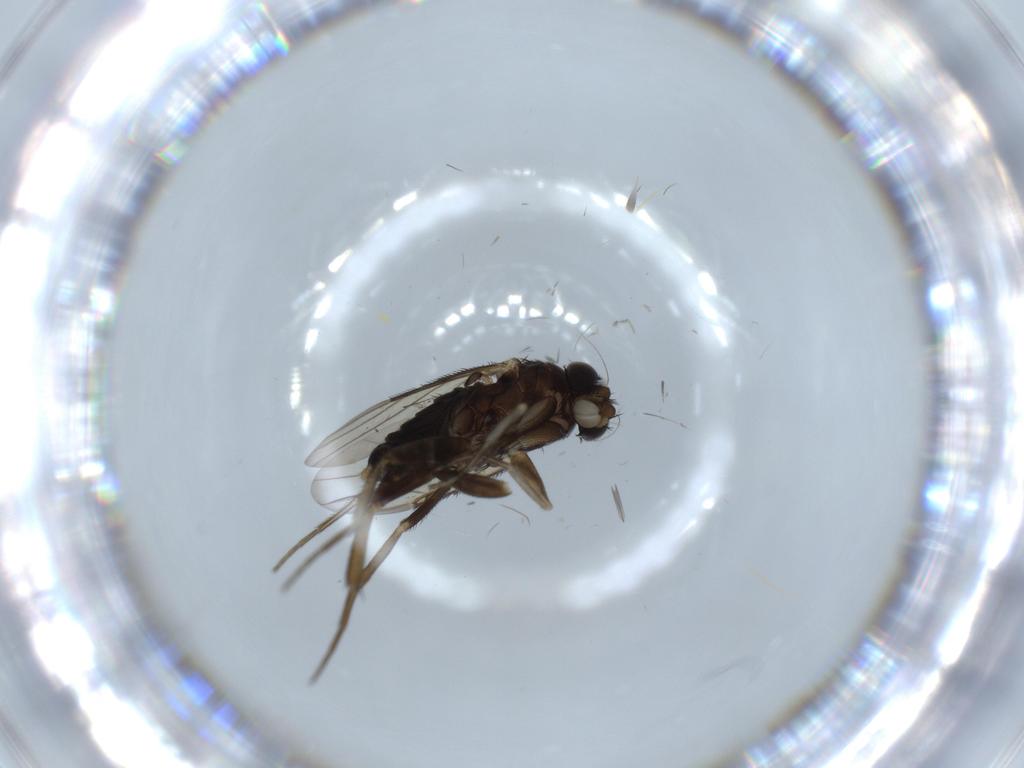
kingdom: Animalia
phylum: Arthropoda
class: Insecta
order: Diptera
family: Phoridae
